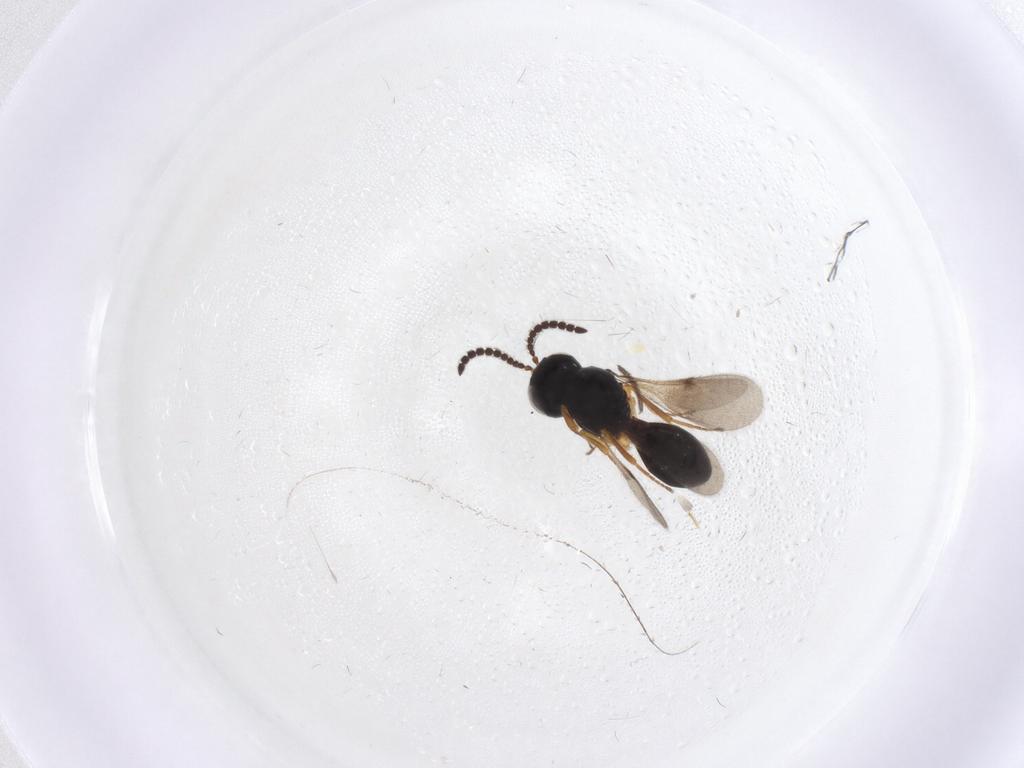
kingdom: Animalia
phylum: Arthropoda
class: Insecta
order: Hymenoptera
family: Scelionidae
